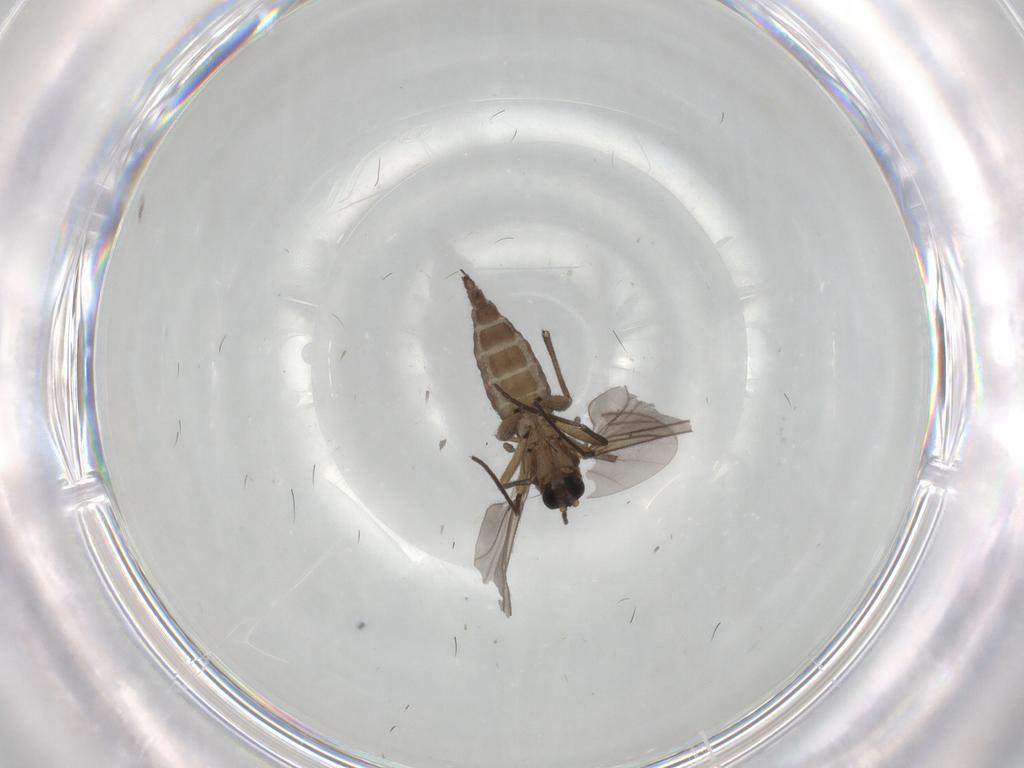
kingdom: Animalia
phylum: Arthropoda
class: Insecta
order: Diptera
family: Sciaridae
